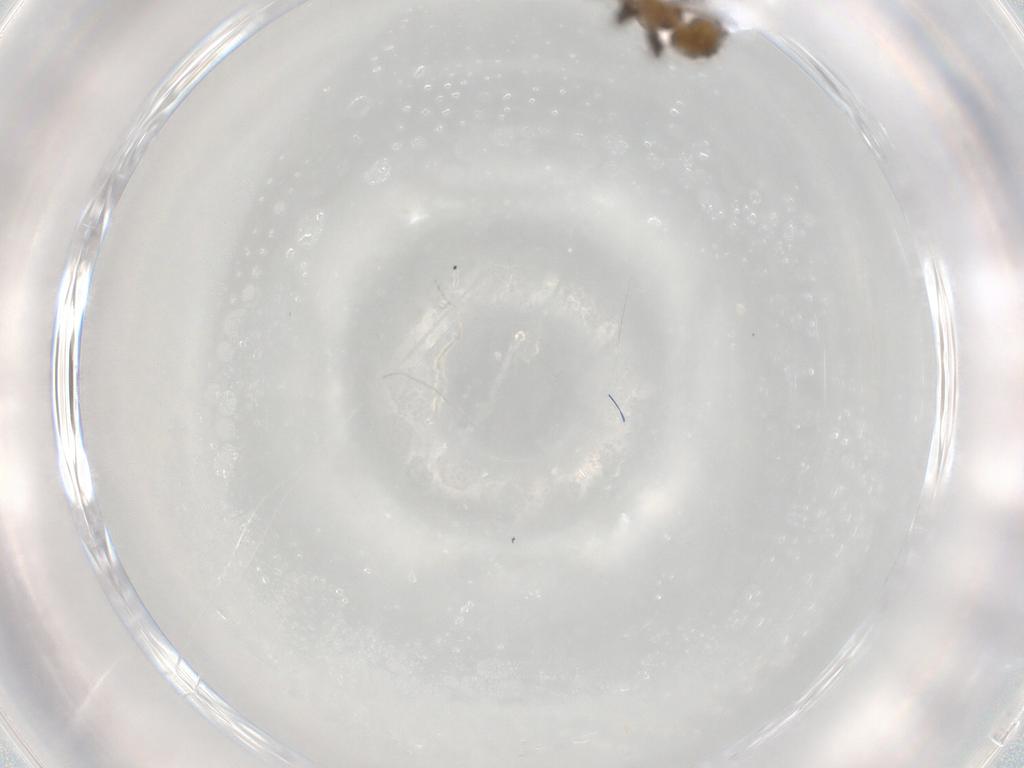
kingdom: Animalia
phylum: Arthropoda
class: Insecta
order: Hymenoptera
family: Formicidae
